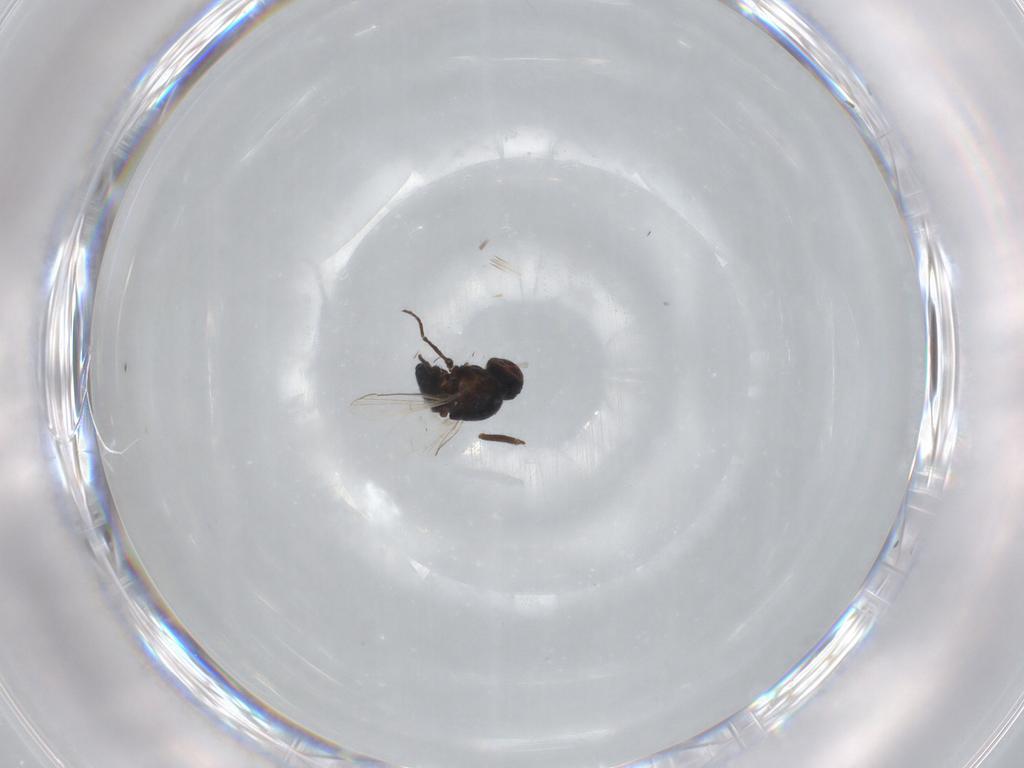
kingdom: Animalia
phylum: Arthropoda
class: Insecta
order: Diptera
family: Agromyzidae
